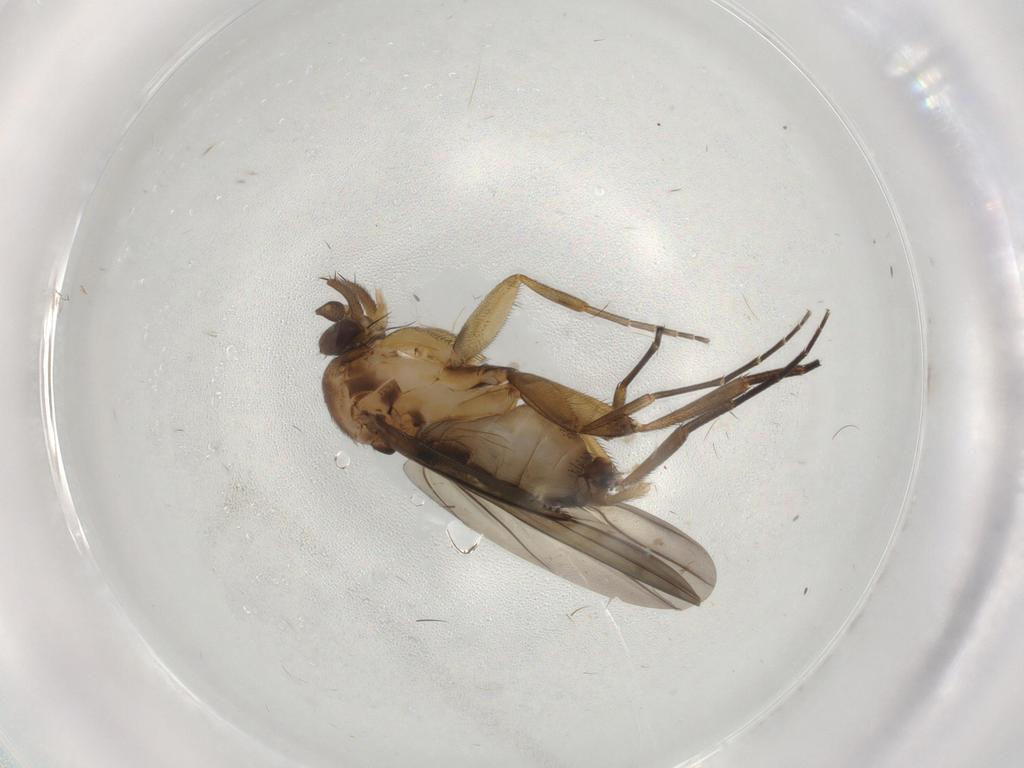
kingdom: Animalia
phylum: Arthropoda
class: Insecta
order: Diptera
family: Phoridae
